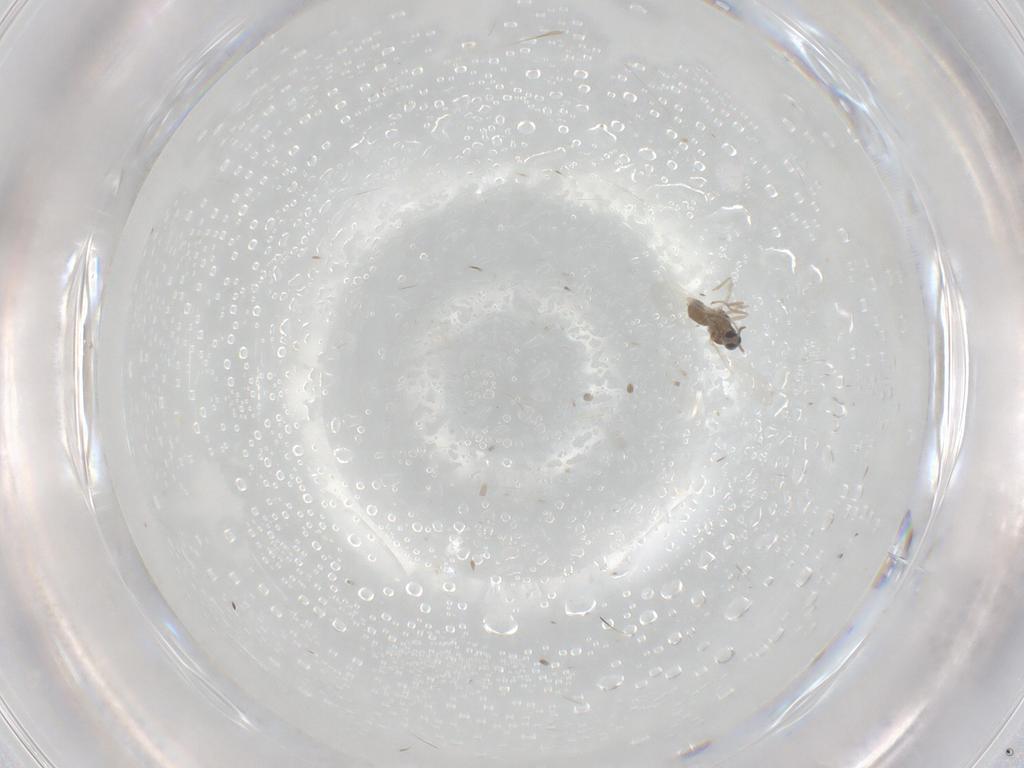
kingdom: Animalia
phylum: Arthropoda
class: Insecta
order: Diptera
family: Cecidomyiidae
